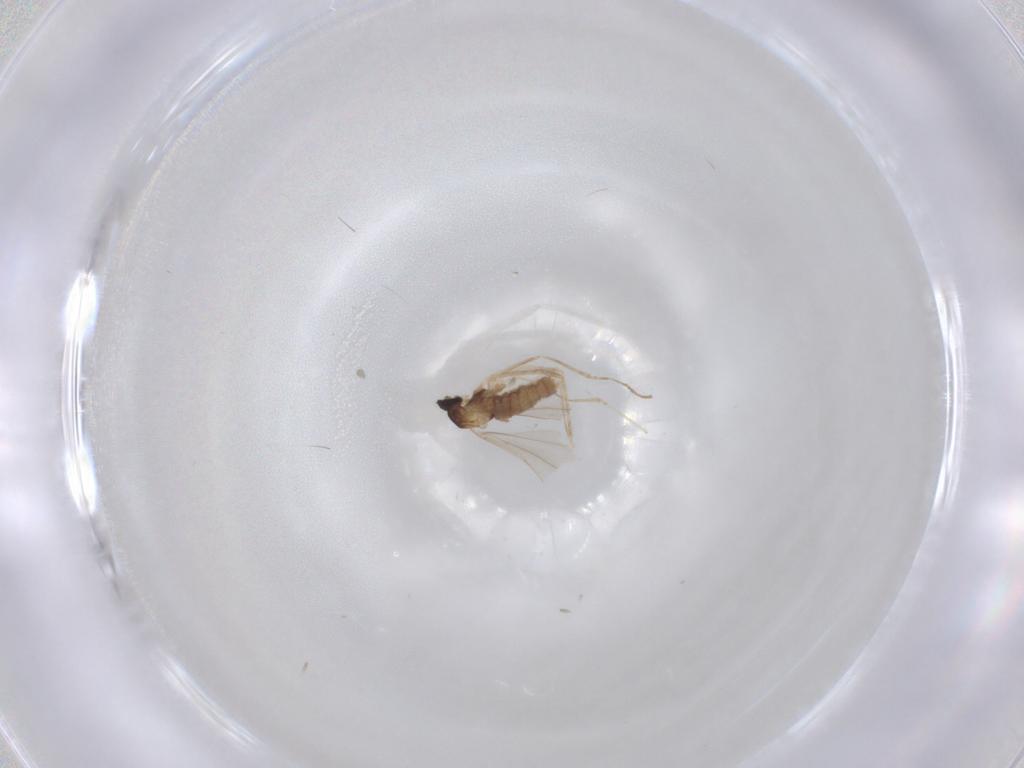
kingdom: Animalia
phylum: Arthropoda
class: Insecta
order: Diptera
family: Cecidomyiidae
